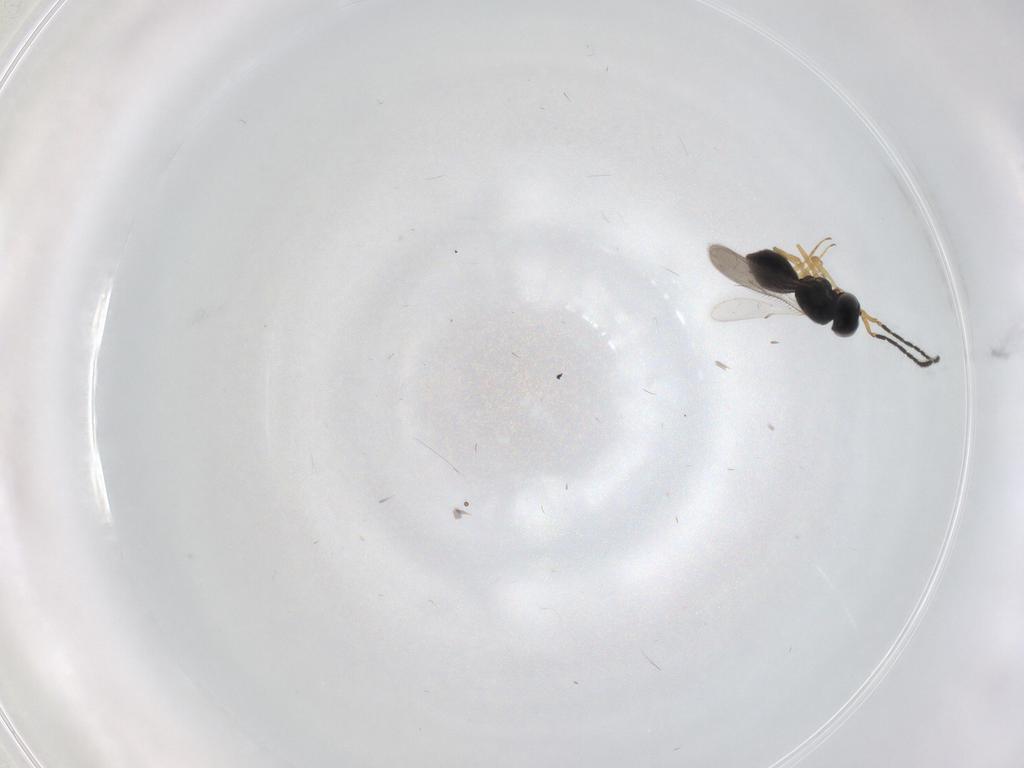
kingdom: Animalia
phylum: Arthropoda
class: Insecta
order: Hymenoptera
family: Scelionidae
